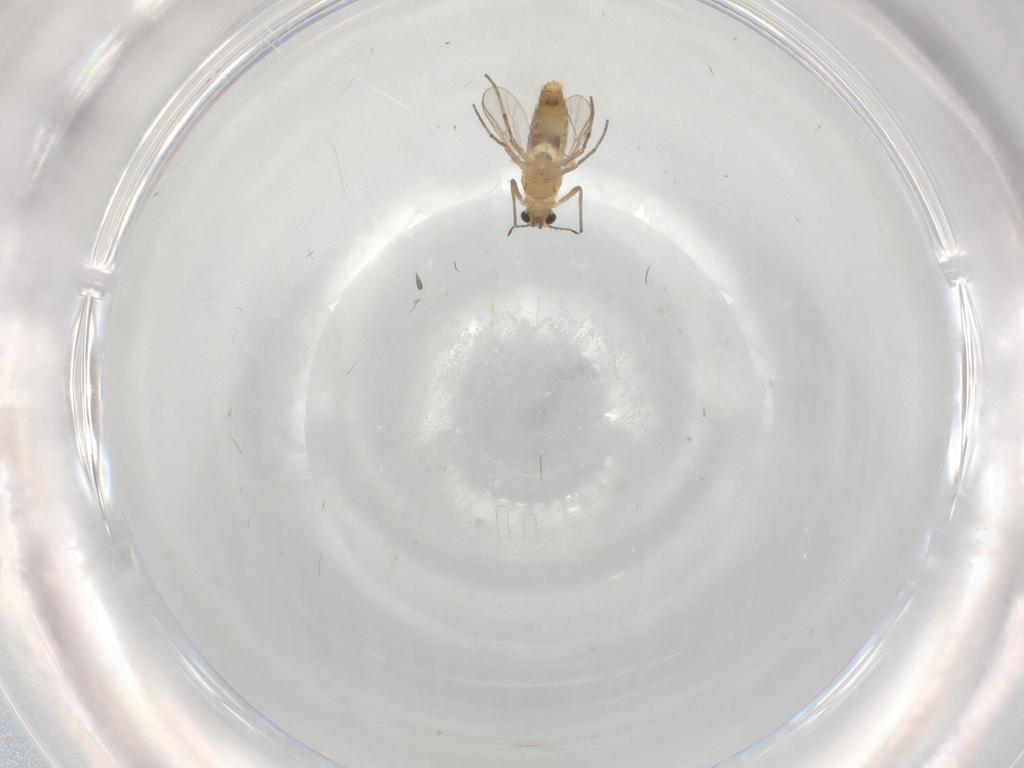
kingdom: Animalia
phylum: Arthropoda
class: Insecta
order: Diptera
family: Cecidomyiidae
